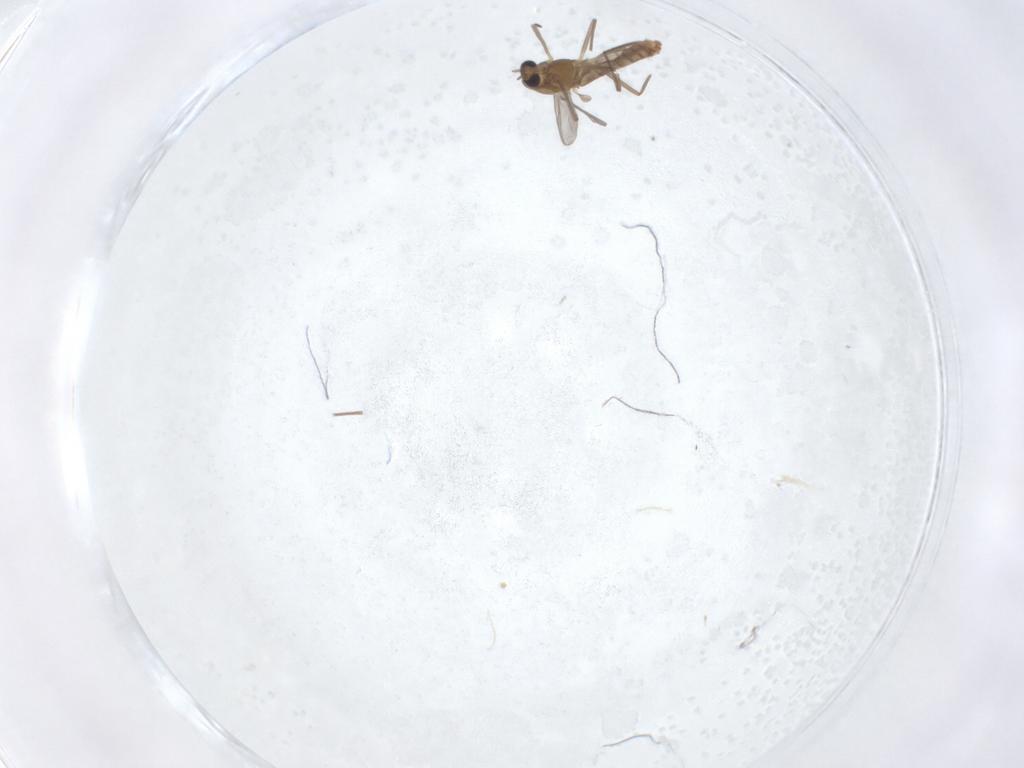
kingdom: Animalia
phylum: Arthropoda
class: Insecta
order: Diptera
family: Chironomidae
